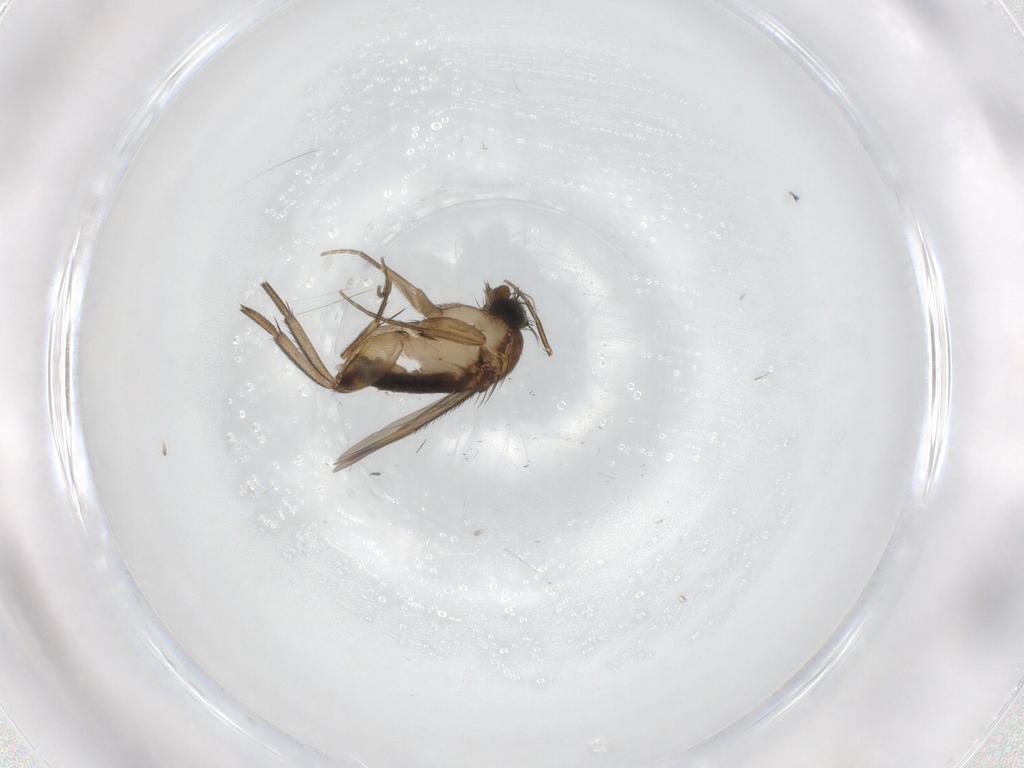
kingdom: Animalia
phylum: Arthropoda
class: Insecta
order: Diptera
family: Phoridae
